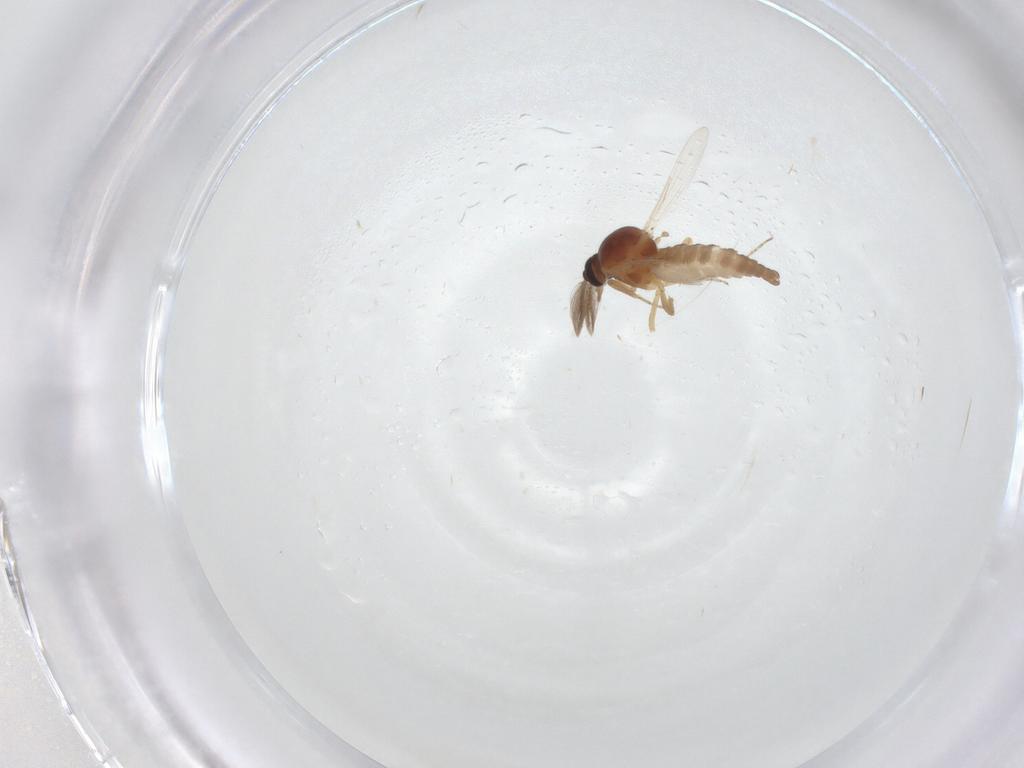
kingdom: Animalia
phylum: Arthropoda
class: Insecta
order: Diptera
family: Ceratopogonidae
